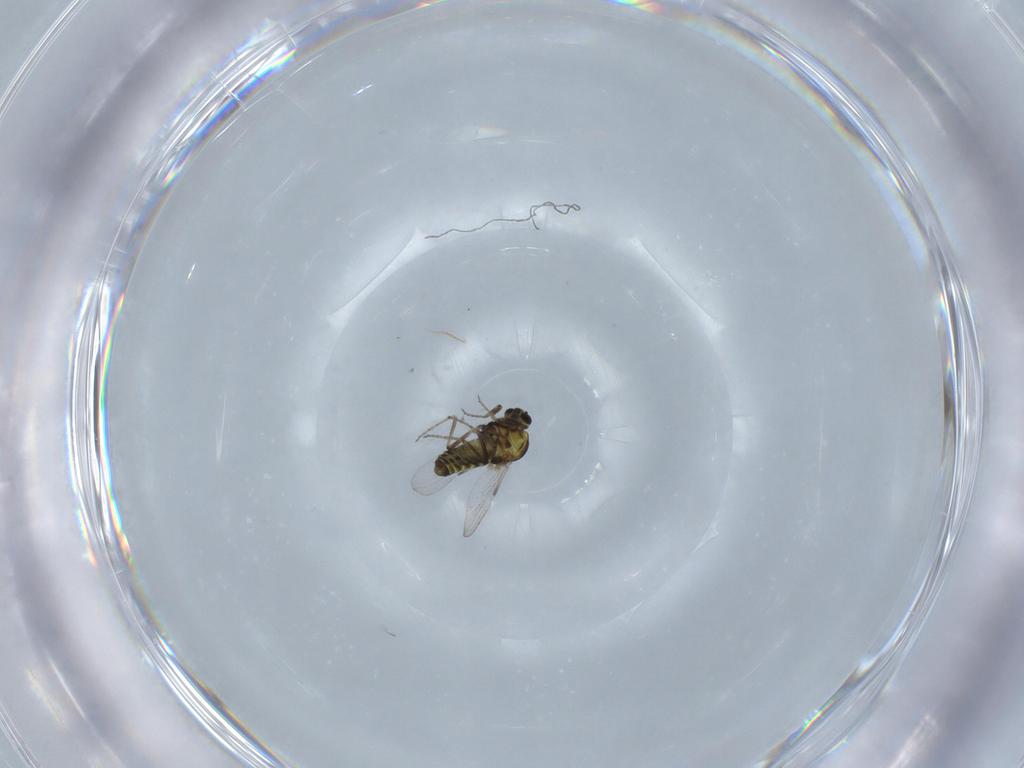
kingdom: Animalia
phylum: Arthropoda
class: Insecta
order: Diptera
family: Ceratopogonidae
